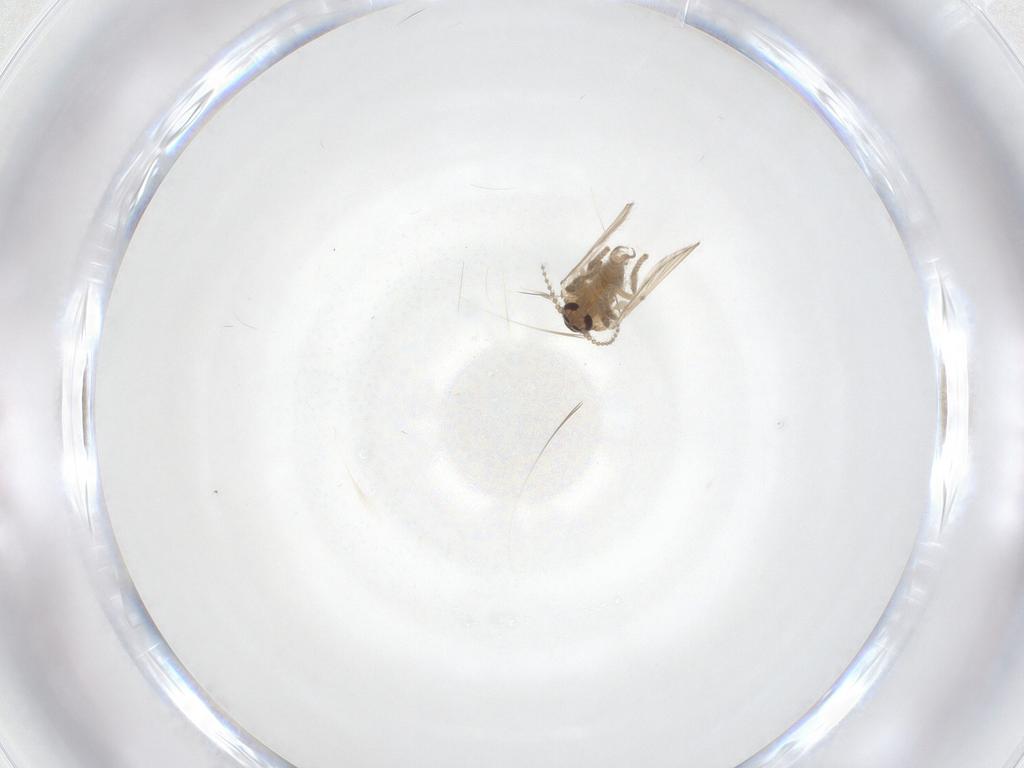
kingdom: Animalia
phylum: Arthropoda
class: Insecta
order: Diptera
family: Psychodidae
